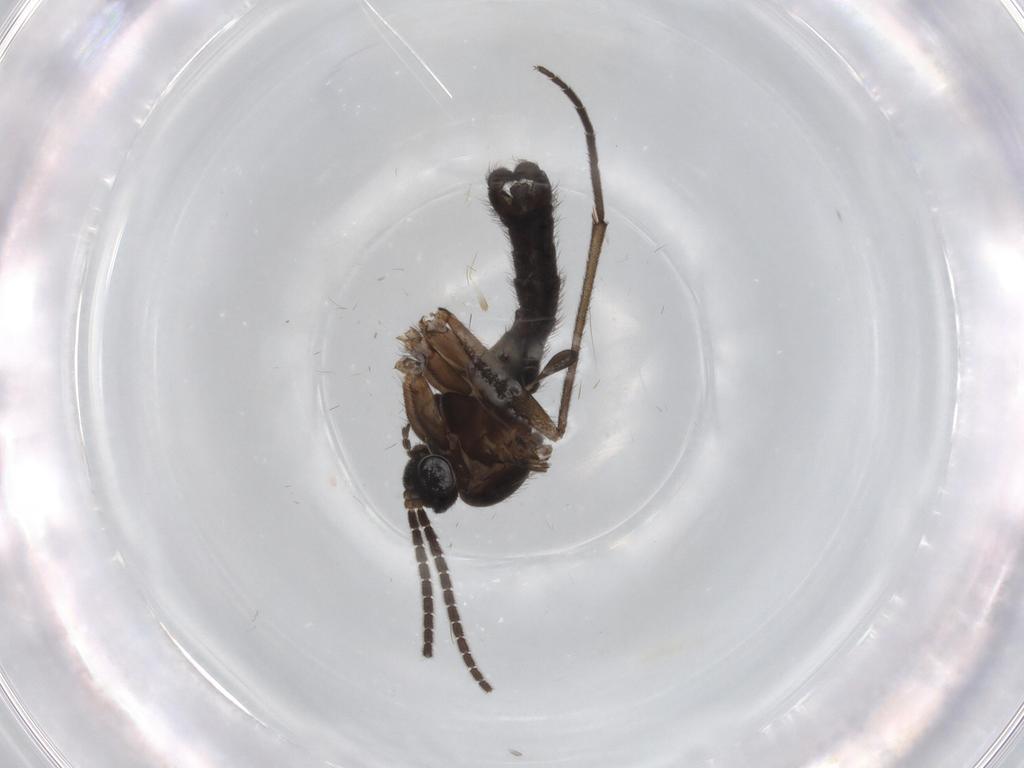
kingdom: Animalia
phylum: Arthropoda
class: Insecta
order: Diptera
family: Sciaridae
